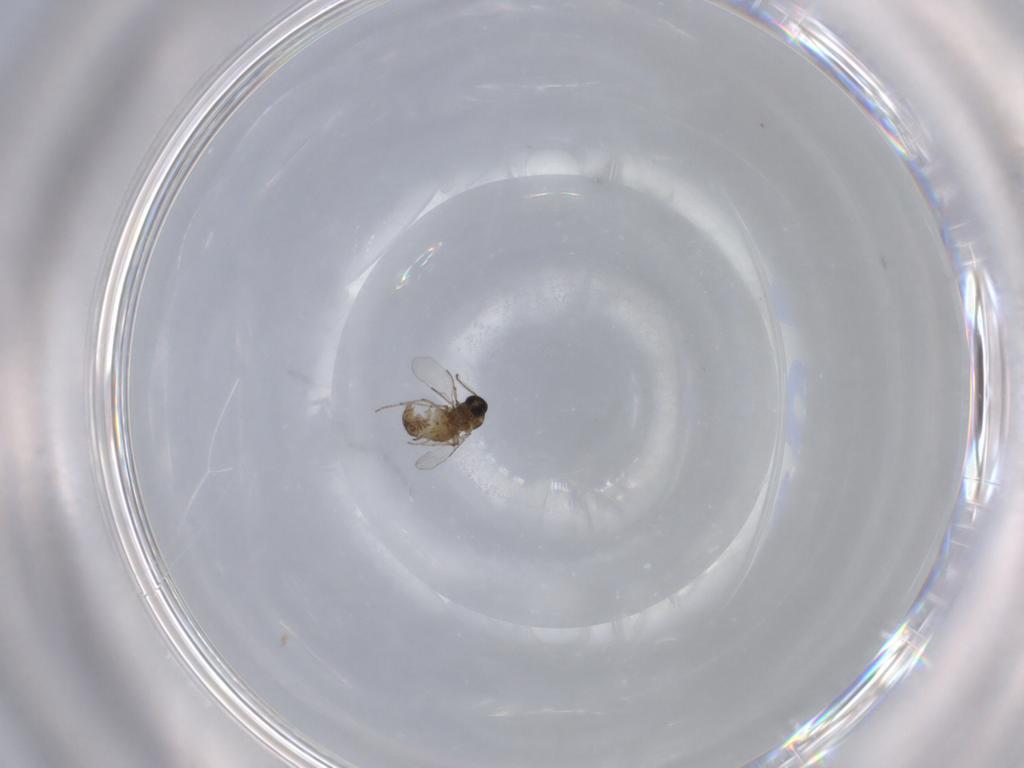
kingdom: Animalia
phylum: Arthropoda
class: Insecta
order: Diptera
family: Ceratopogonidae
